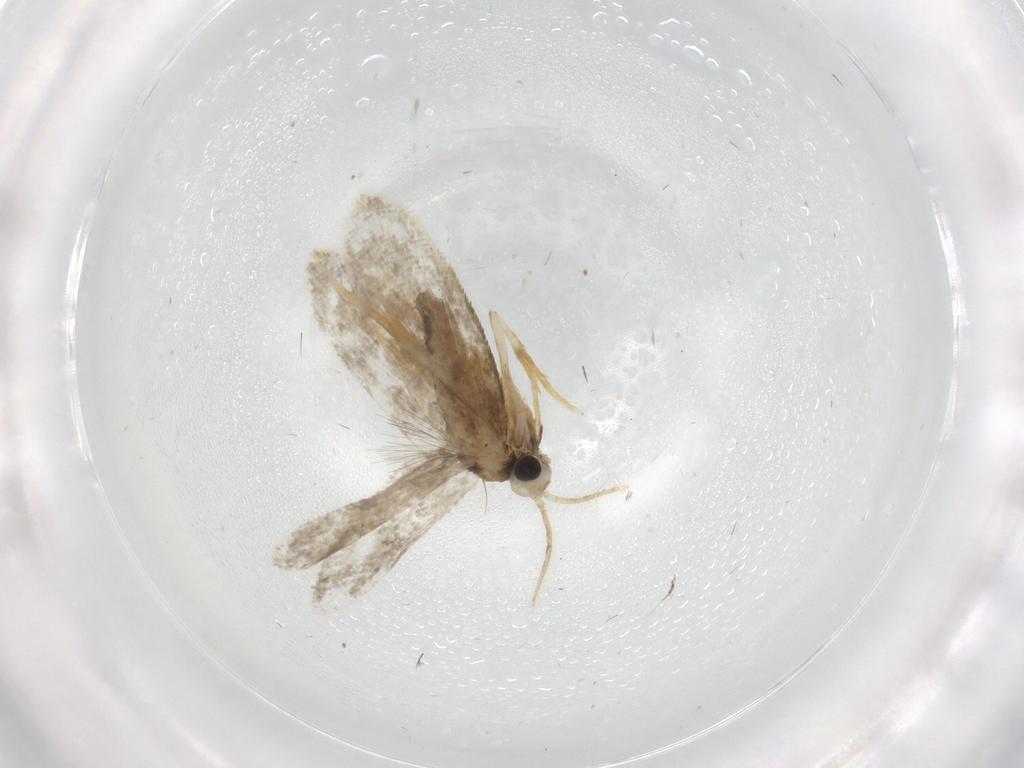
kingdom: Animalia
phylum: Arthropoda
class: Insecta
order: Lepidoptera
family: Psychidae
